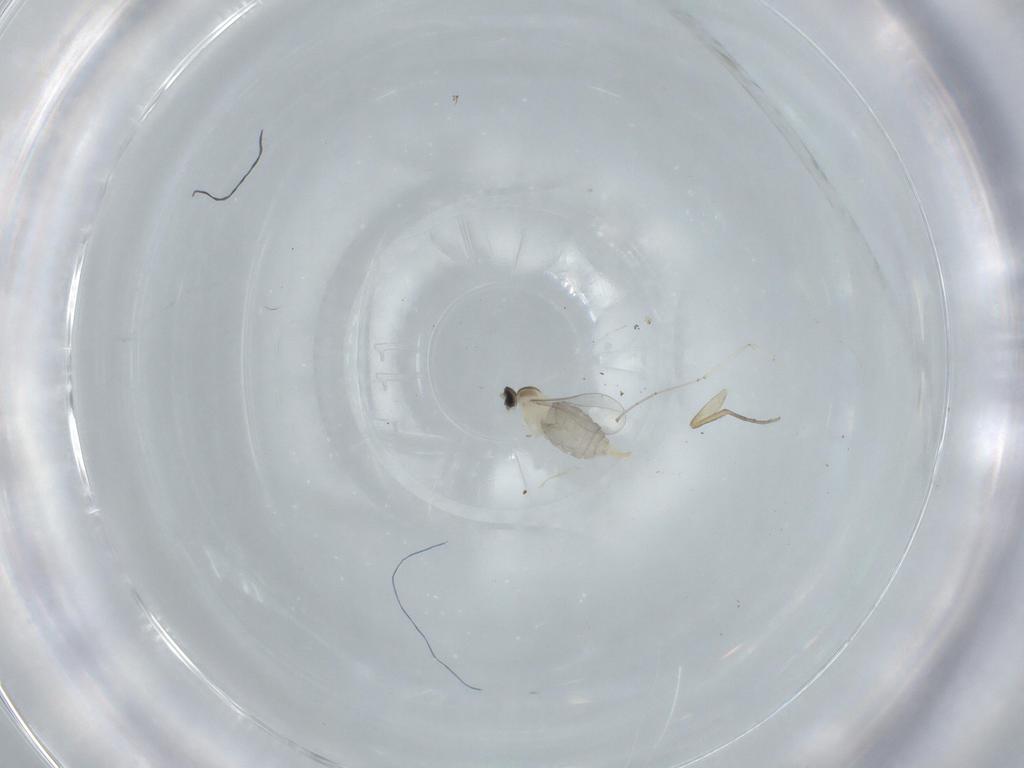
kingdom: Animalia
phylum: Arthropoda
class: Insecta
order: Diptera
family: Phoridae
